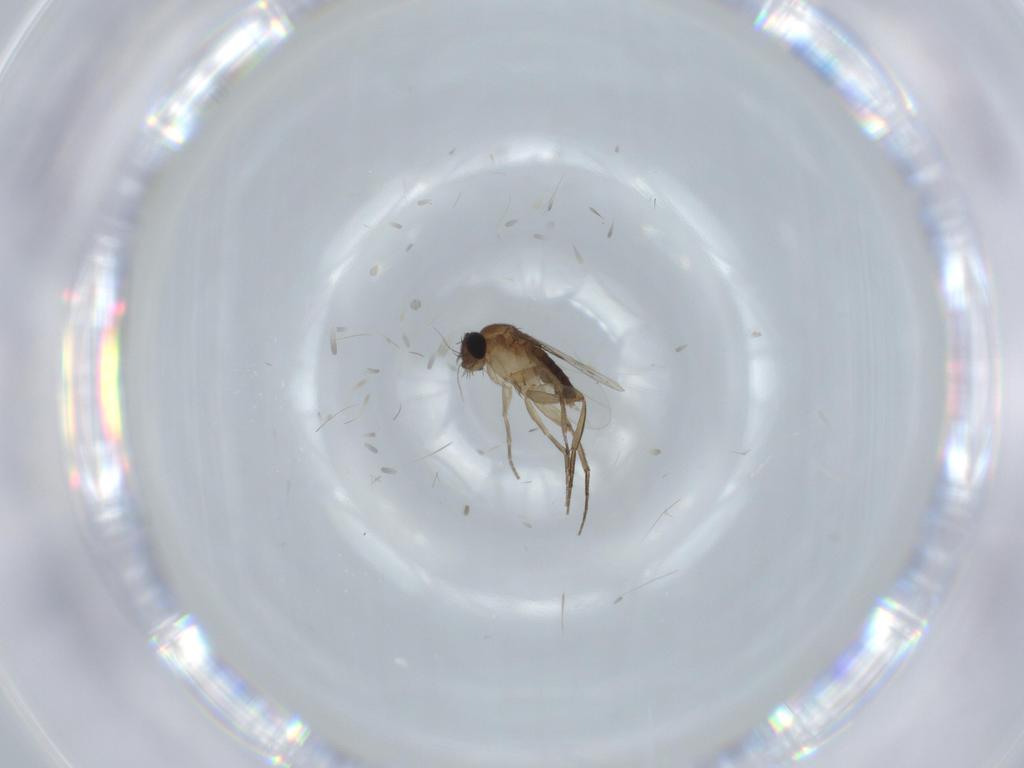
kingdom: Animalia
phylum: Arthropoda
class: Insecta
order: Diptera
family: Phoridae
